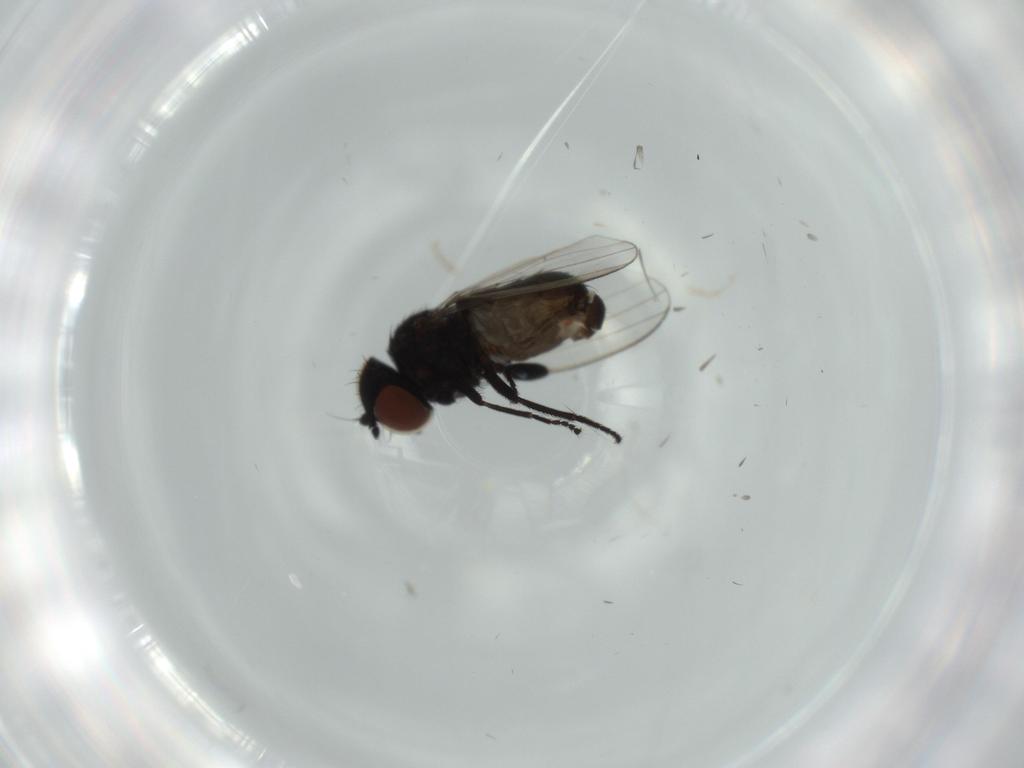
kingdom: Animalia
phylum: Arthropoda
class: Insecta
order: Diptera
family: Milichiidae
